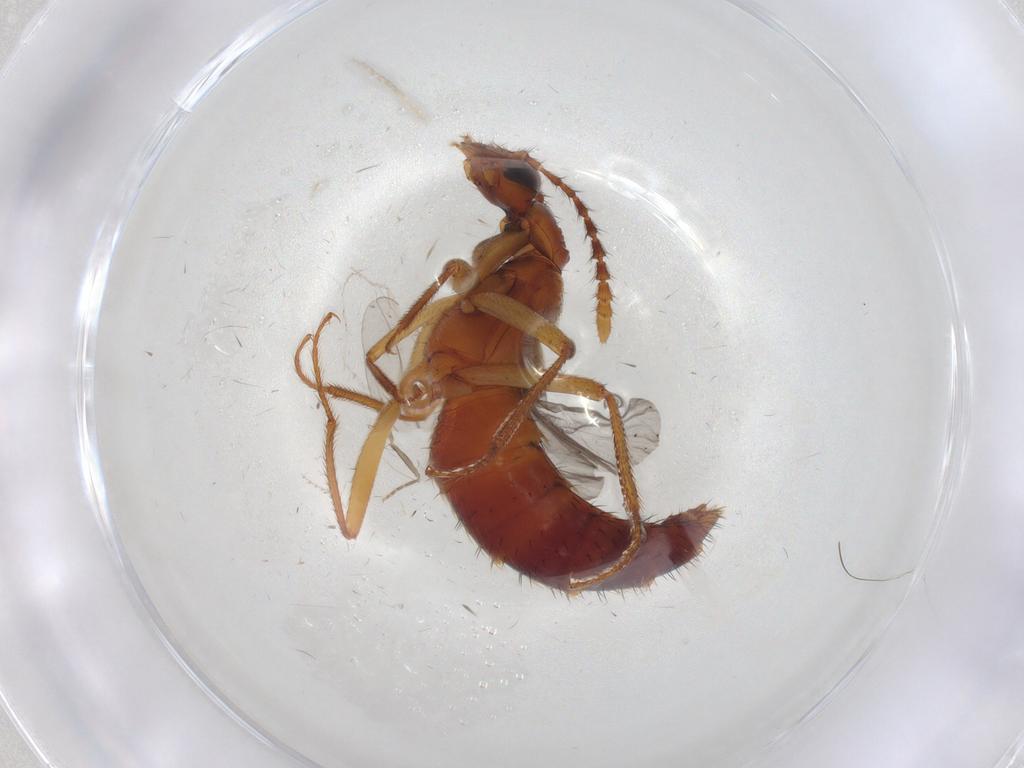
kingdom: Animalia
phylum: Arthropoda
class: Insecta
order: Coleoptera
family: Staphylinidae
